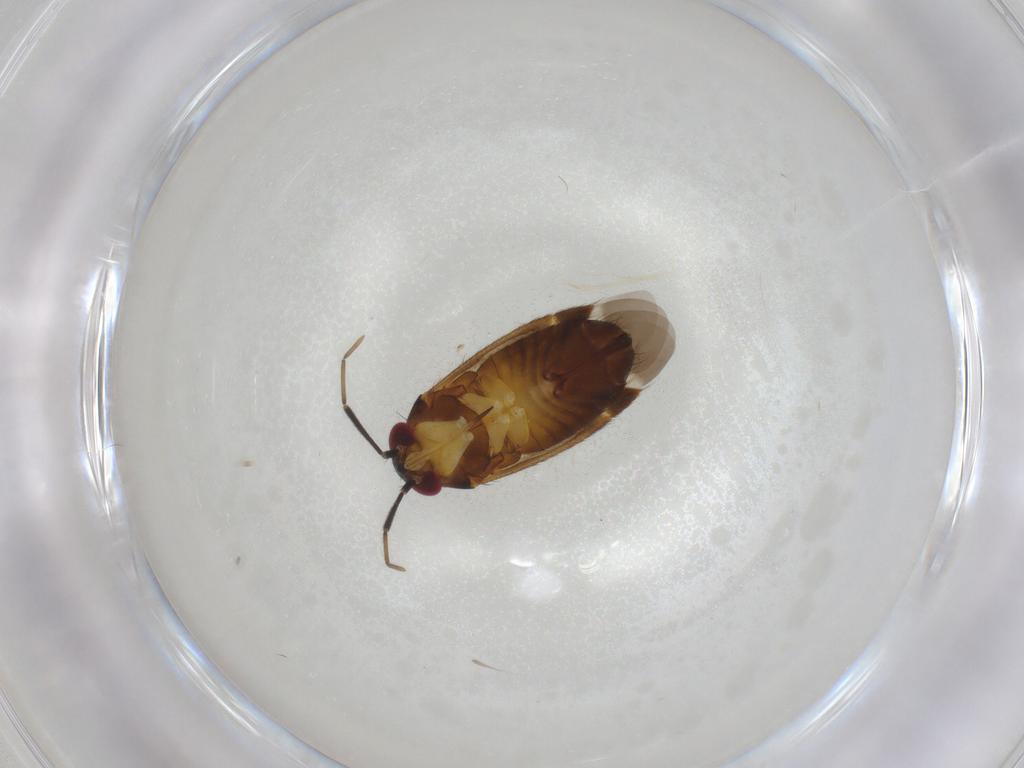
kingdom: Animalia
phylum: Arthropoda
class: Insecta
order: Hemiptera
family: Miridae
